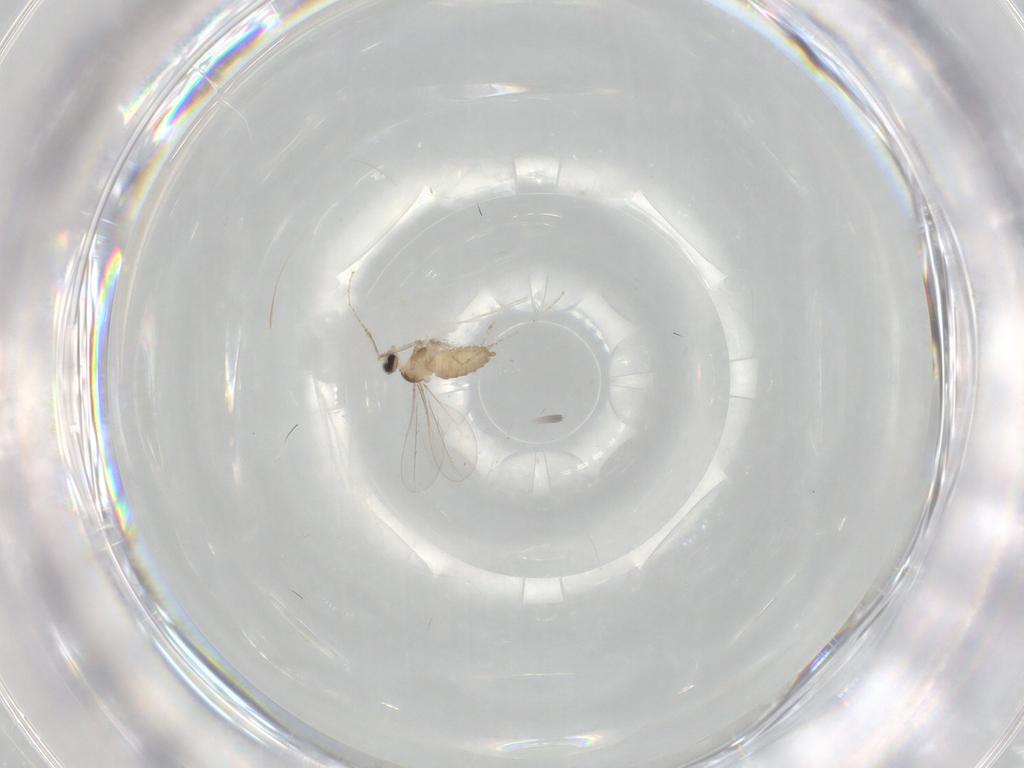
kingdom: Animalia
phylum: Arthropoda
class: Insecta
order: Diptera
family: Cecidomyiidae
